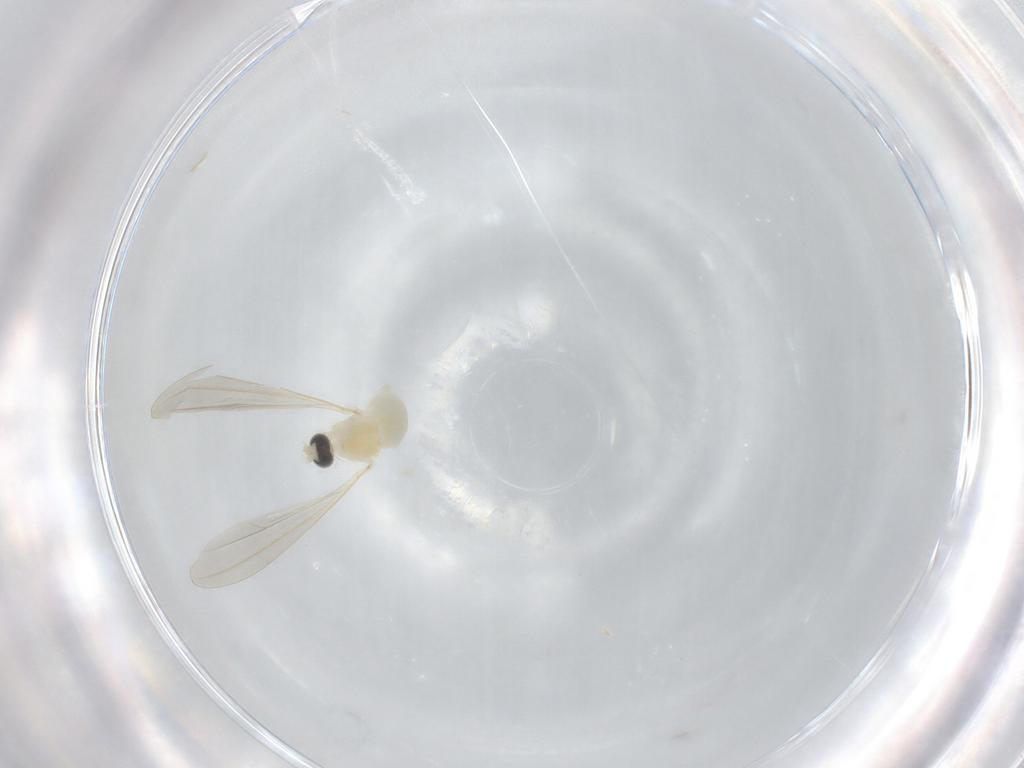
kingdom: Animalia
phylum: Arthropoda
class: Insecta
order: Diptera
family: Cecidomyiidae
